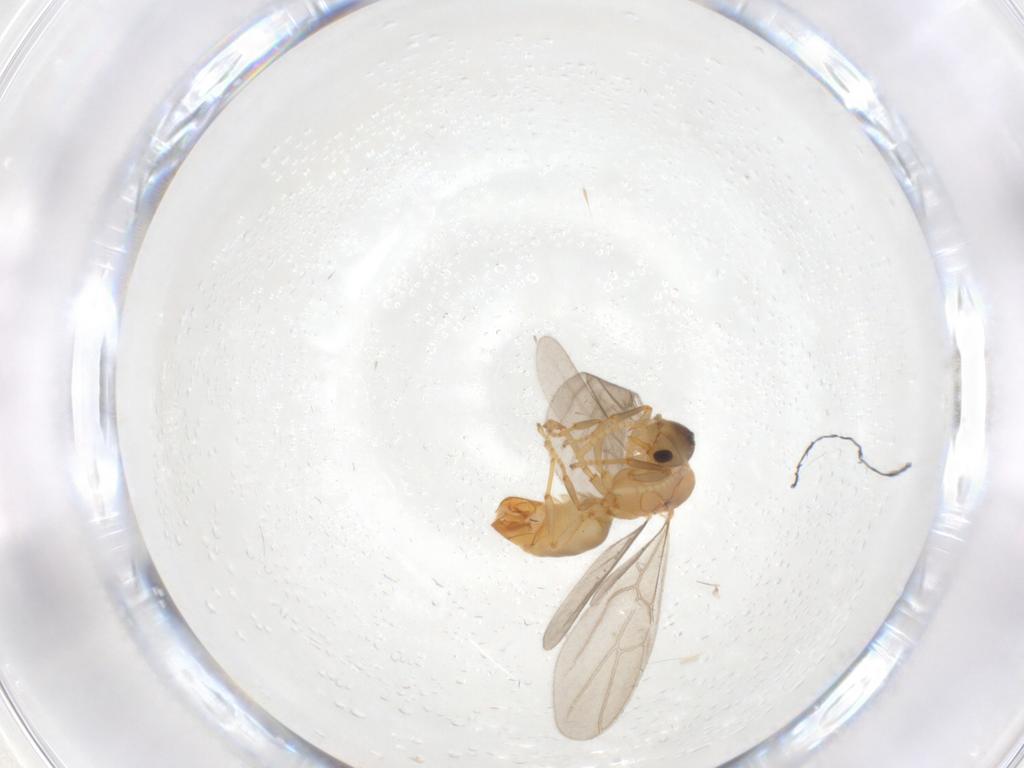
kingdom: Animalia
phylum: Arthropoda
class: Insecta
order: Hymenoptera
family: Formicidae
